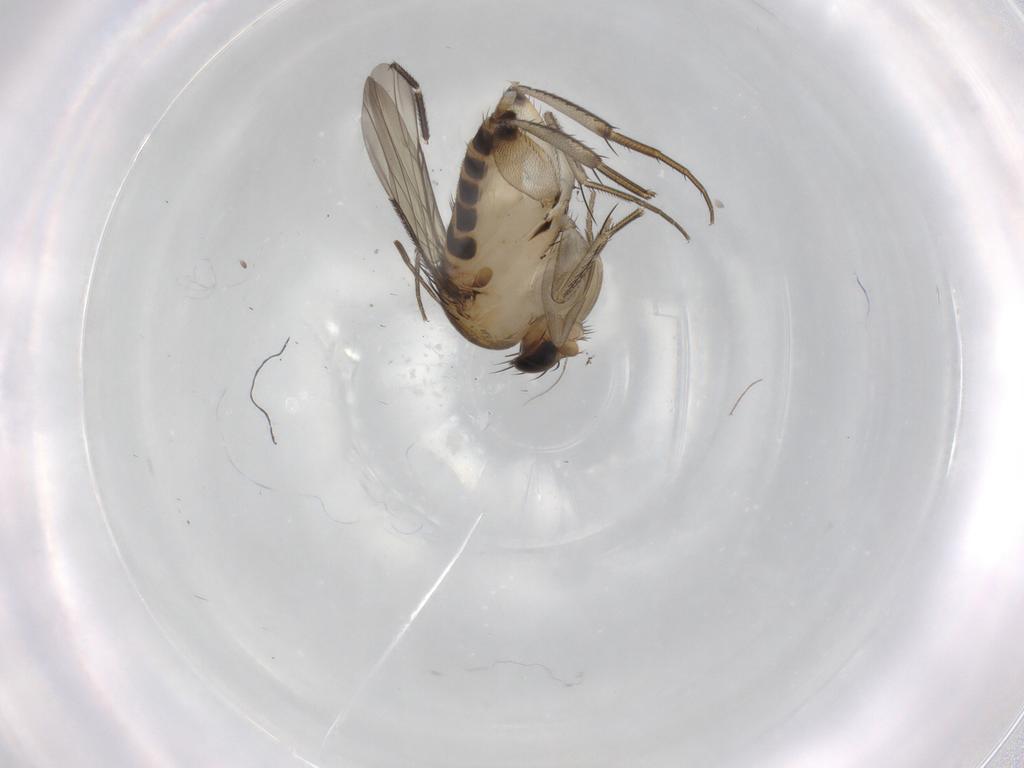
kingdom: Animalia
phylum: Arthropoda
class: Insecta
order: Diptera
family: Phoridae
